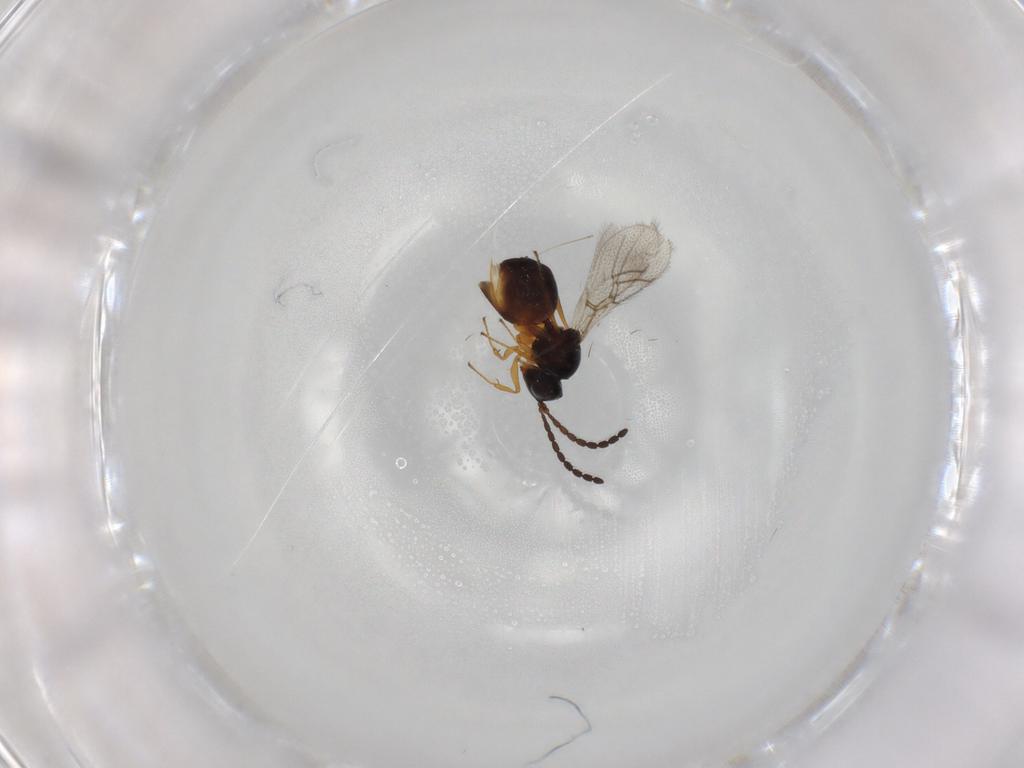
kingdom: Animalia
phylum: Arthropoda
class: Insecta
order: Hymenoptera
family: Figitidae
